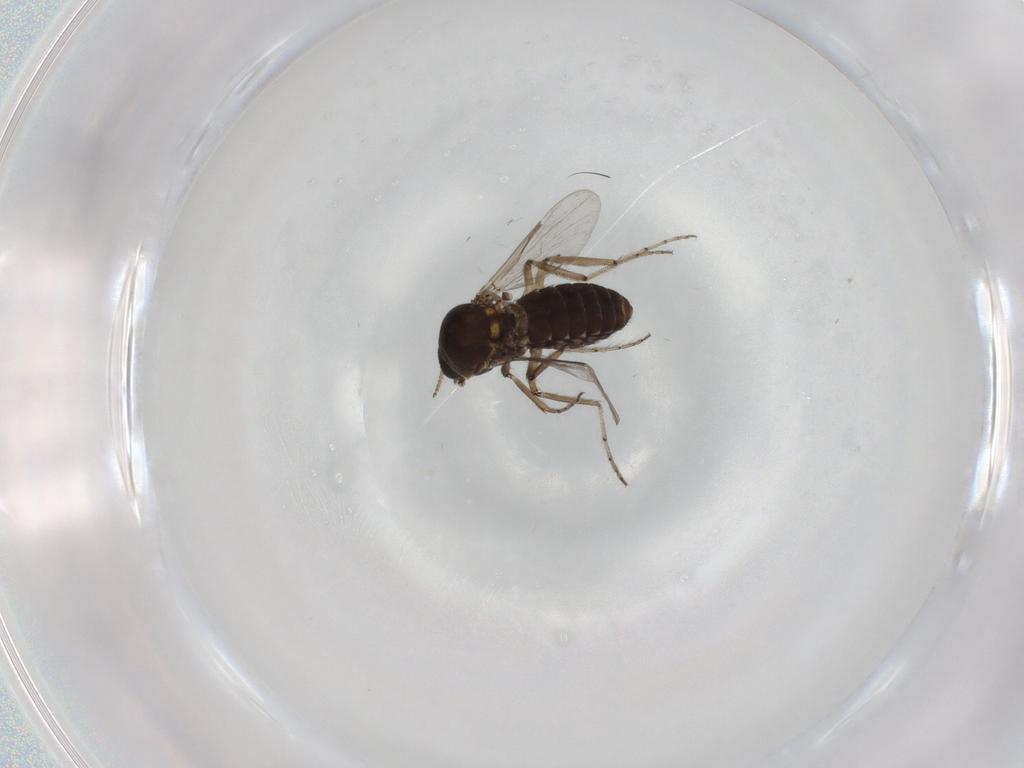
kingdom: Animalia
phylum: Arthropoda
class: Insecta
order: Diptera
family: Ceratopogonidae
